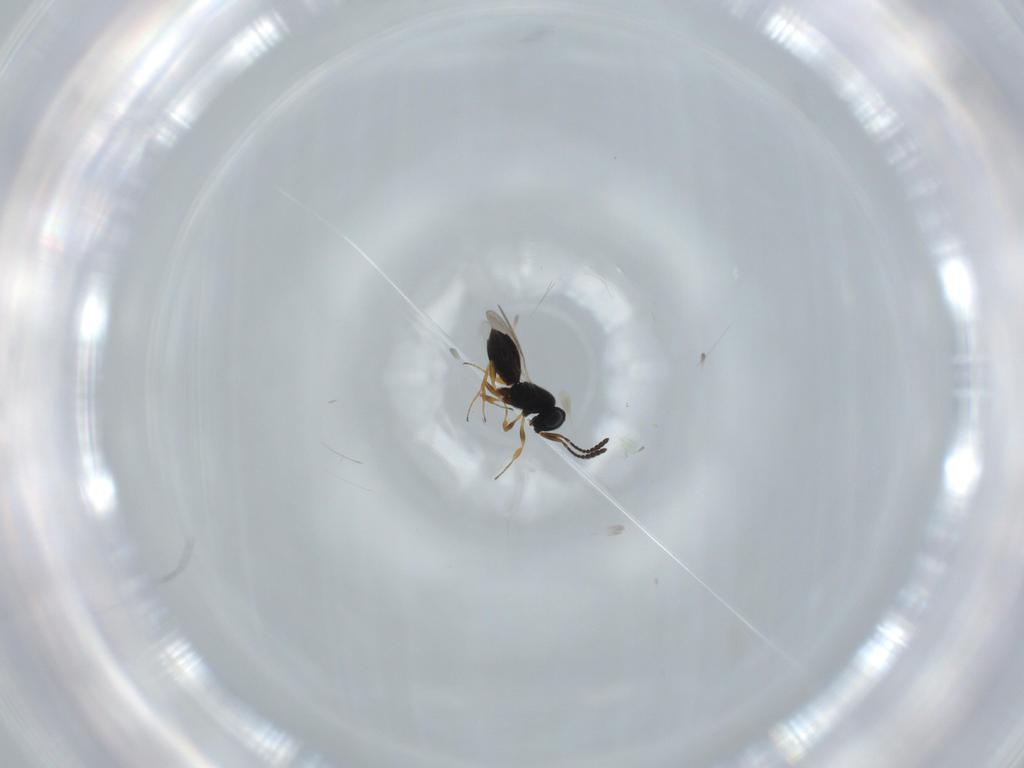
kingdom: Animalia
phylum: Arthropoda
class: Insecta
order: Hymenoptera
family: Scelionidae
